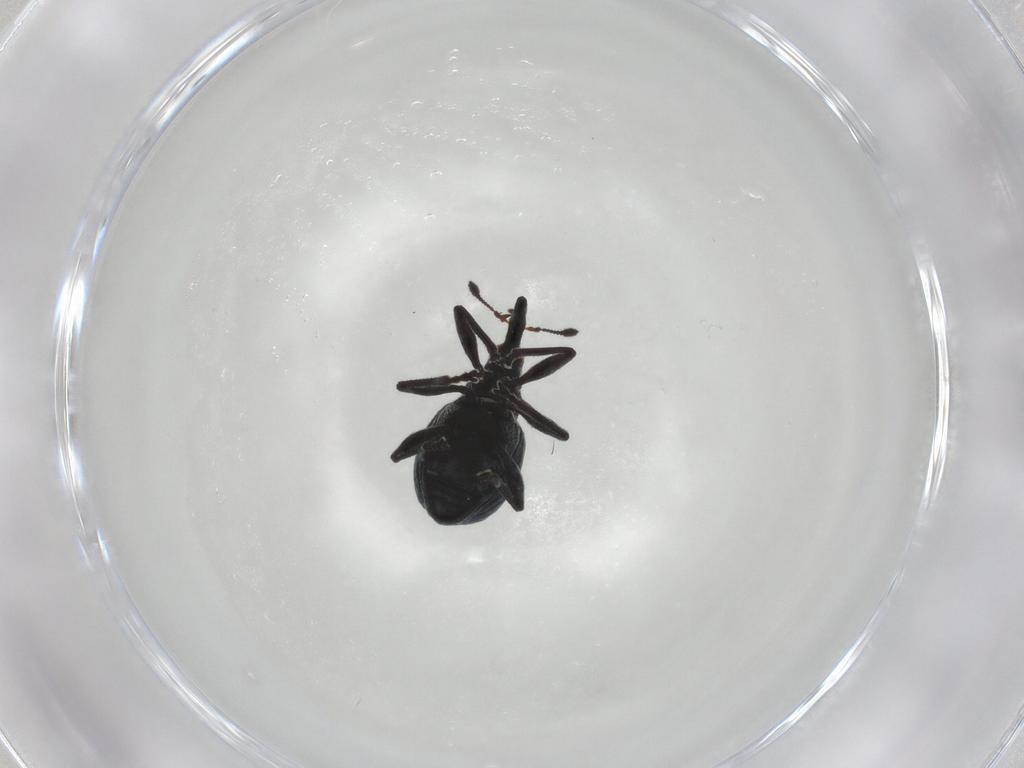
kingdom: Animalia
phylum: Arthropoda
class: Insecta
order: Coleoptera
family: Brentidae
